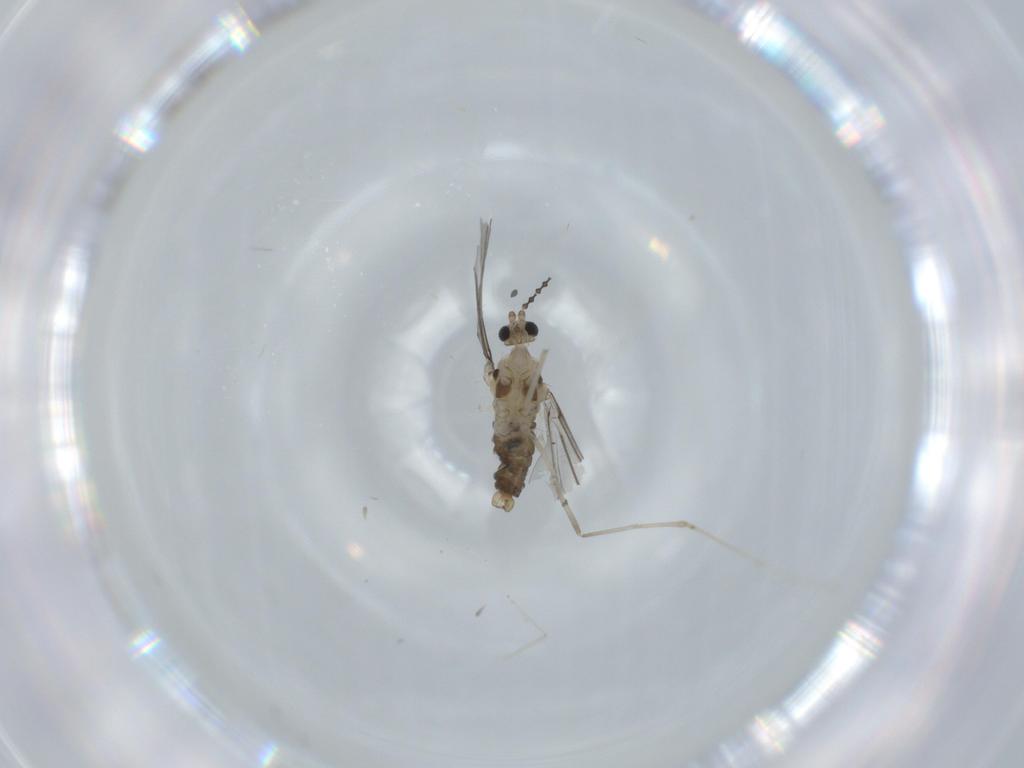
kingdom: Animalia
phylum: Arthropoda
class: Insecta
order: Diptera
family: Cecidomyiidae
